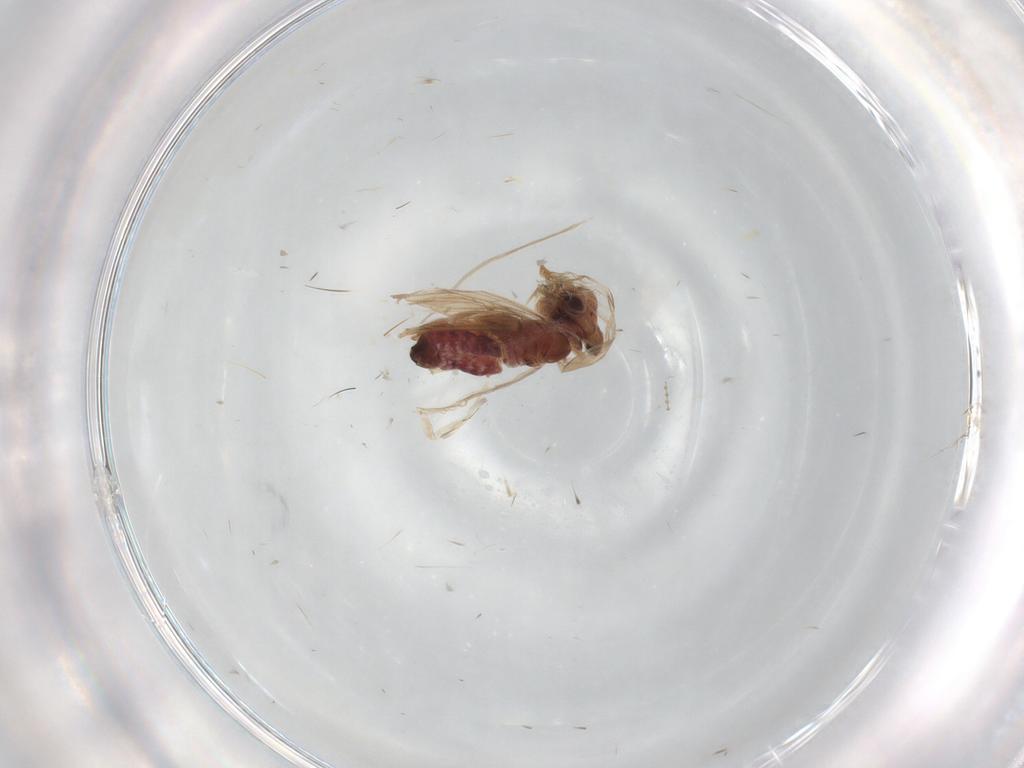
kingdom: Animalia
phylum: Arthropoda
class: Insecta
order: Psocodea
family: Lepidopsocidae
